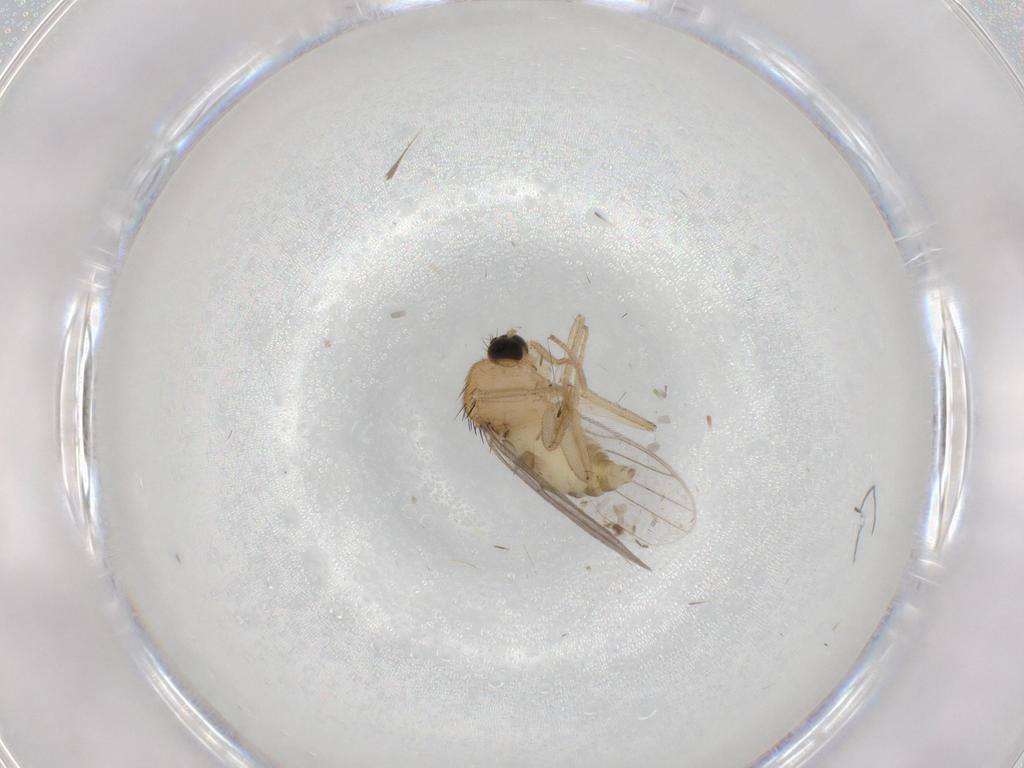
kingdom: Animalia
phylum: Arthropoda
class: Insecta
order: Diptera
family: Hybotidae
